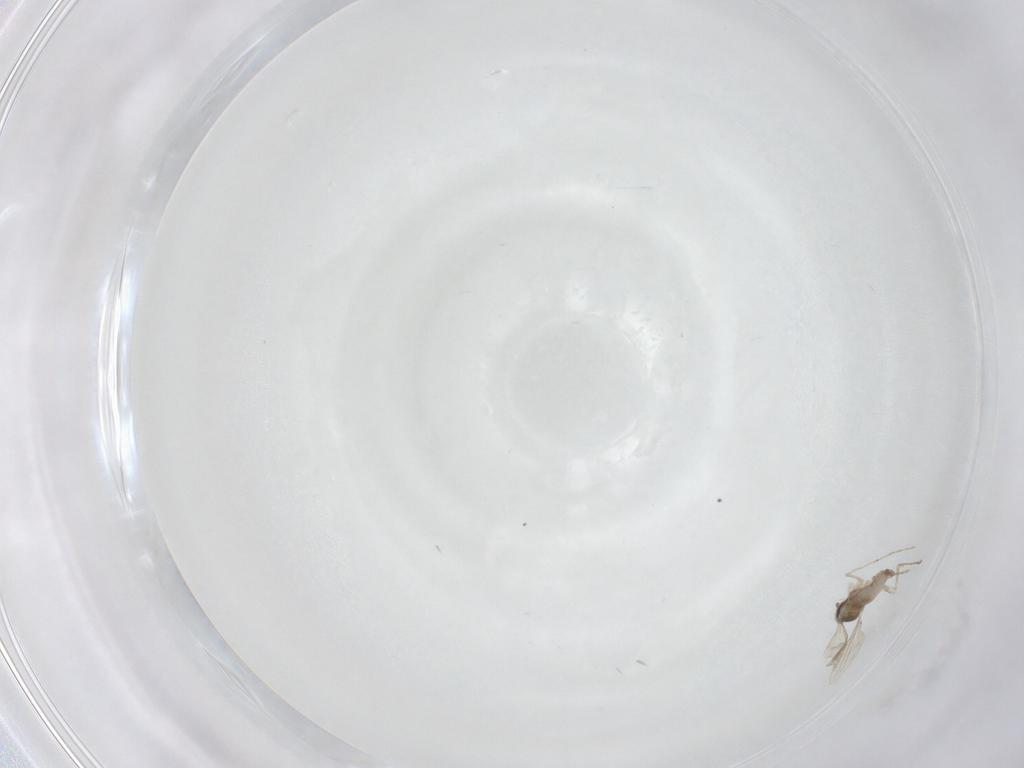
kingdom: Animalia
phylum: Arthropoda
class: Insecta
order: Diptera
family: Cecidomyiidae
